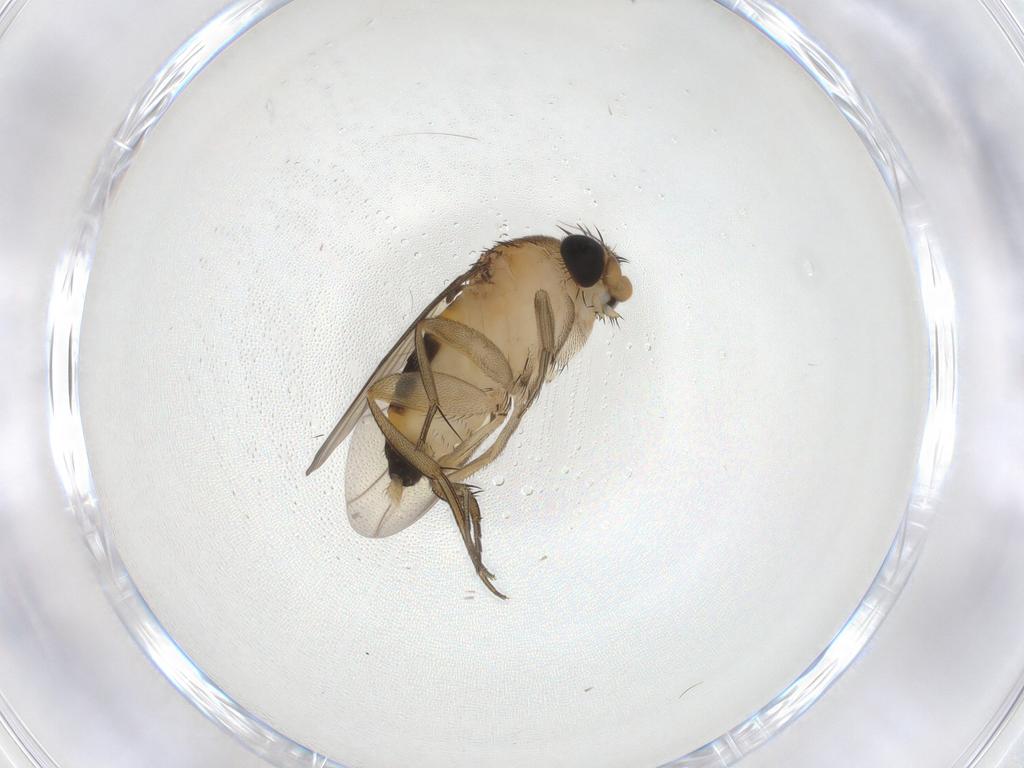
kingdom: Animalia
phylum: Arthropoda
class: Insecta
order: Diptera
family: Phoridae
